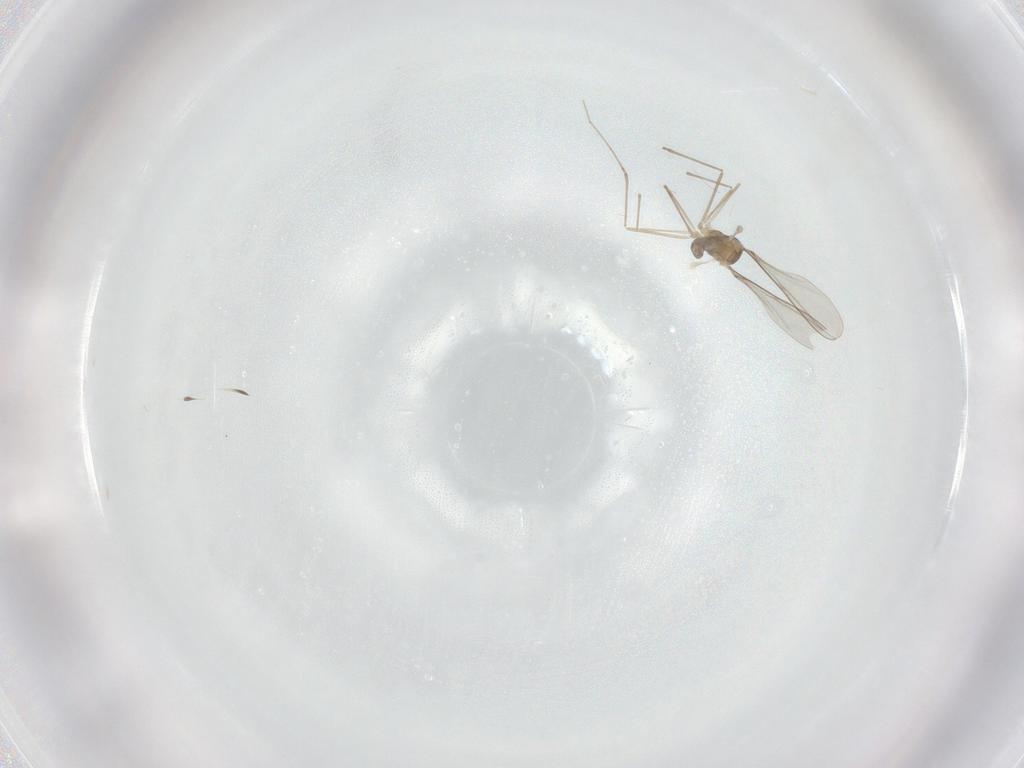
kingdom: Animalia
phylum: Arthropoda
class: Insecta
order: Diptera
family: Cecidomyiidae
